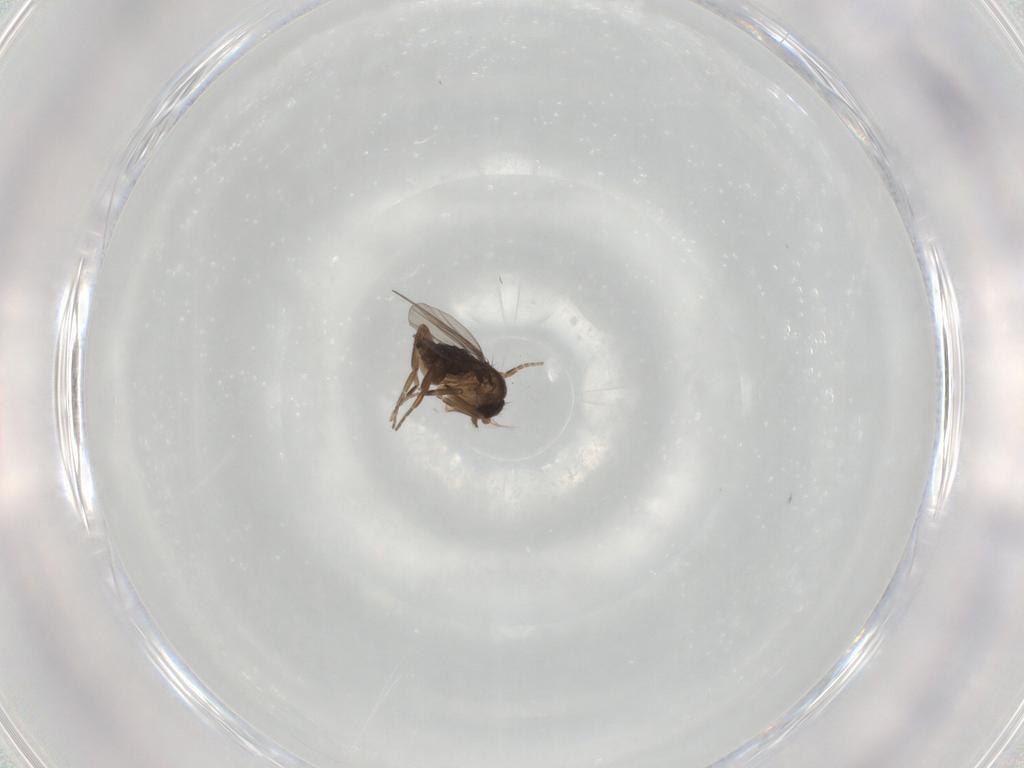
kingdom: Animalia
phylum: Arthropoda
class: Insecta
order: Diptera
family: Phoridae
